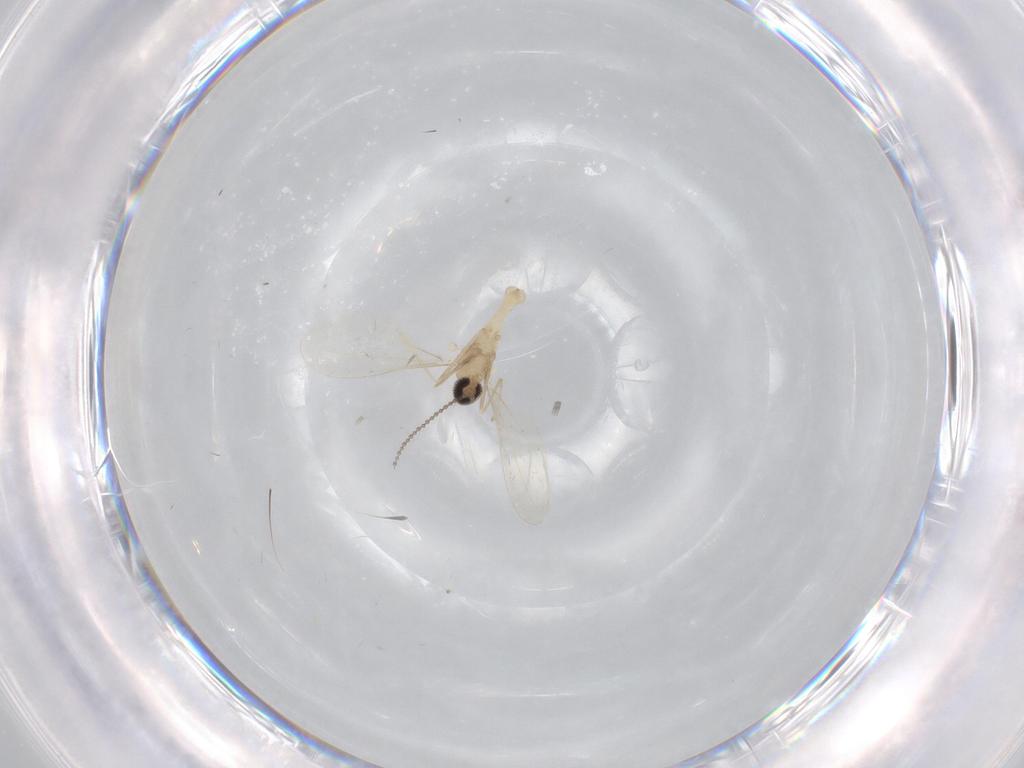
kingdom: Animalia
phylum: Arthropoda
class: Insecta
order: Diptera
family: Cecidomyiidae
